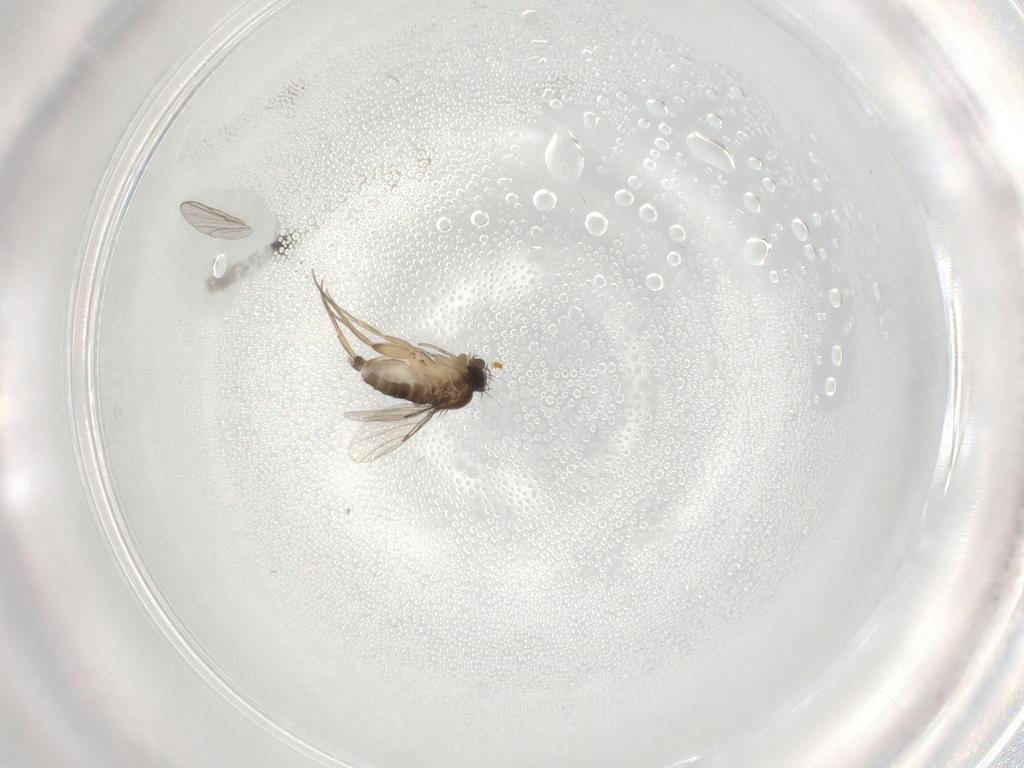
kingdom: Animalia
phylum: Arthropoda
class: Insecta
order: Diptera
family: Phoridae
